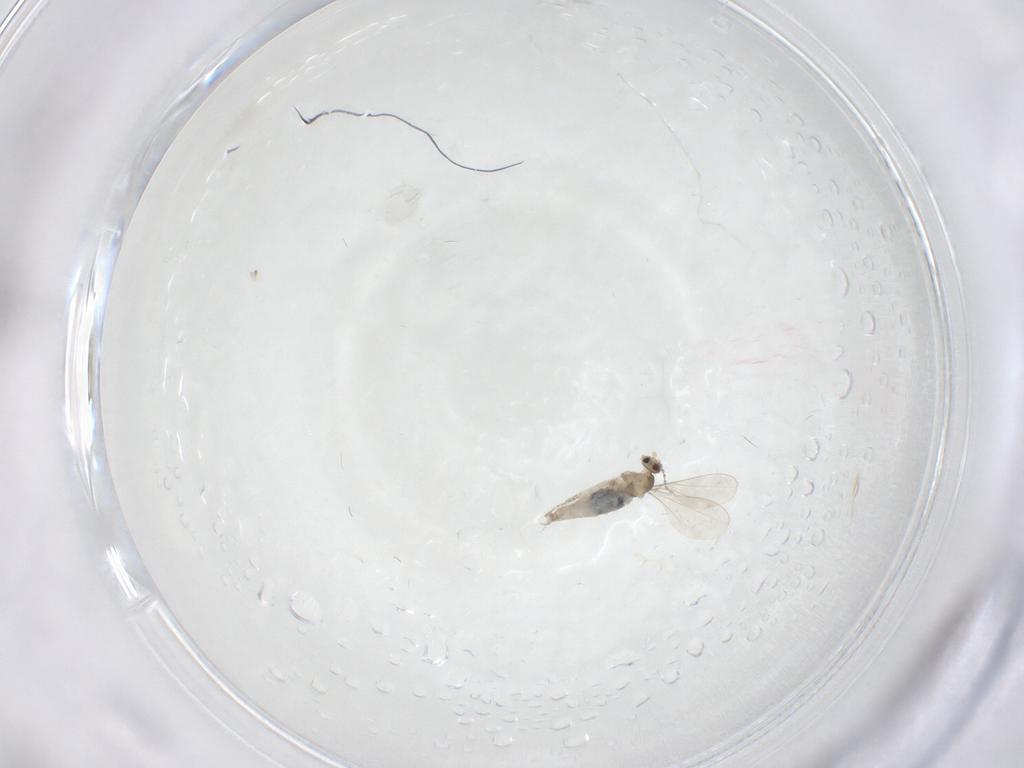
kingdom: Animalia
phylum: Arthropoda
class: Insecta
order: Diptera
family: Cecidomyiidae
